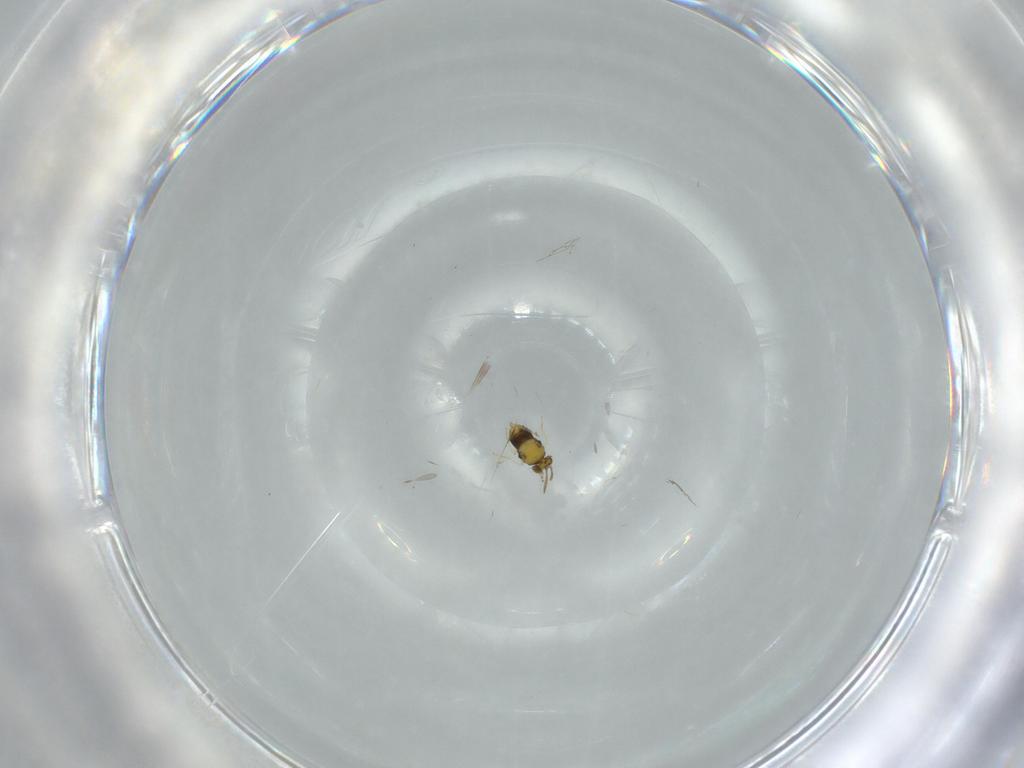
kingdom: Animalia
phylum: Arthropoda
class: Insecta
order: Hymenoptera
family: Aphelinidae
